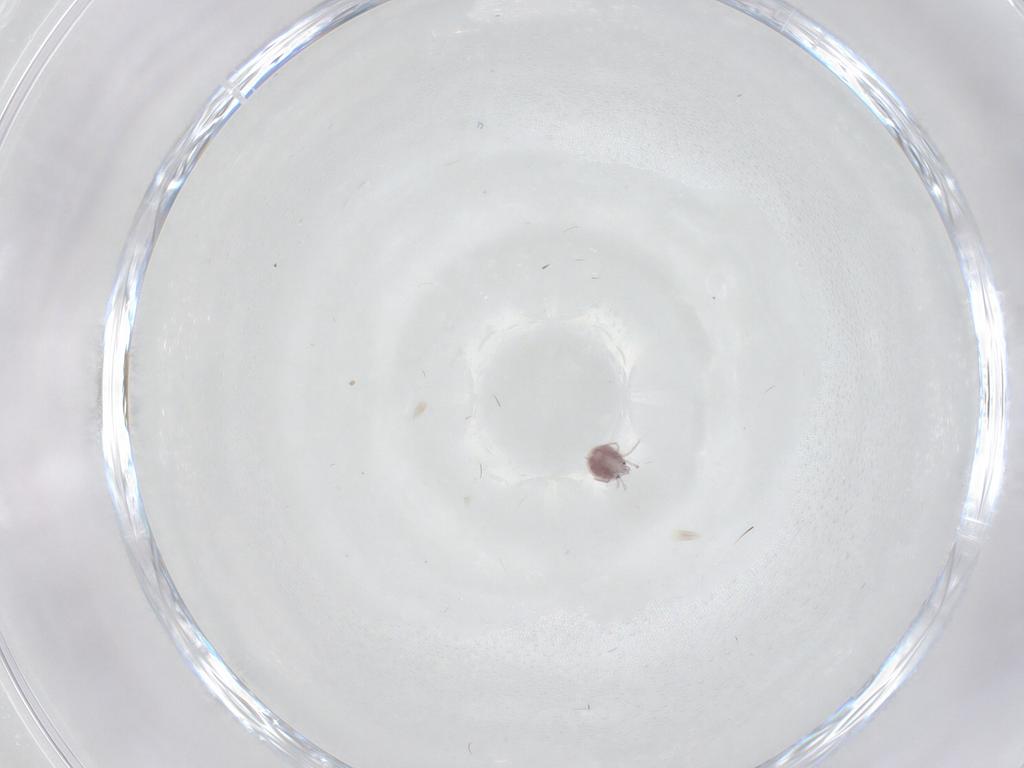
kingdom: Animalia
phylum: Arthropoda
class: Arachnida
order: Trombidiformes
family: Pionidae
